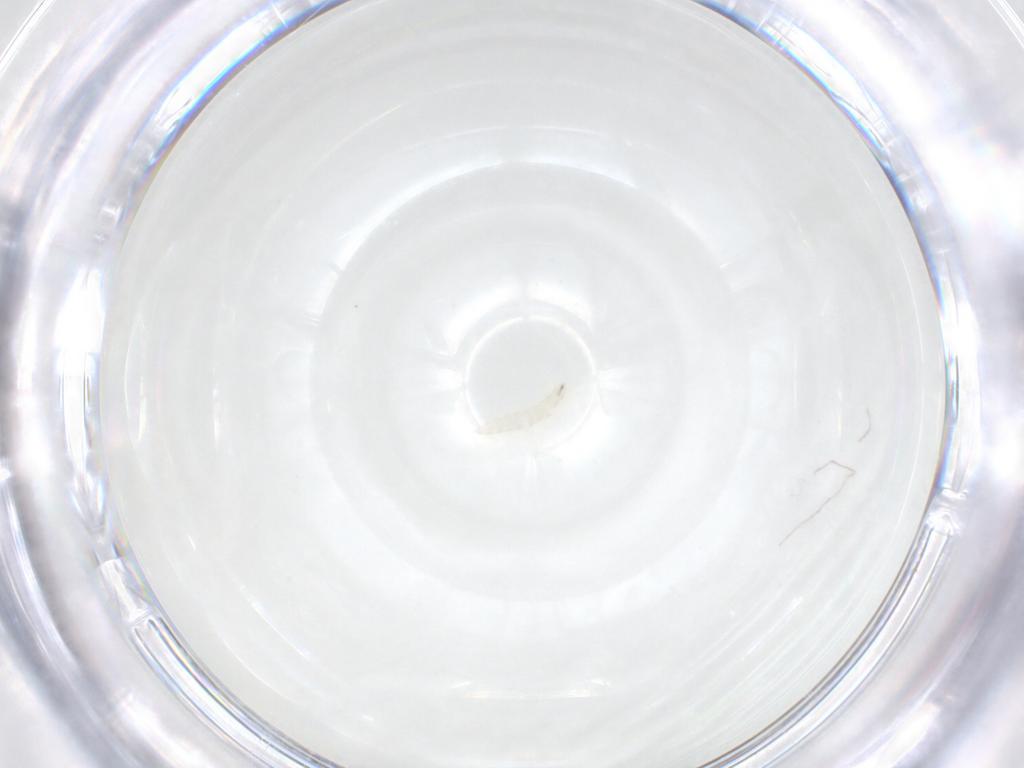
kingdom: Animalia
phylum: Arthropoda
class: Insecta
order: Diptera
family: Tachinidae
